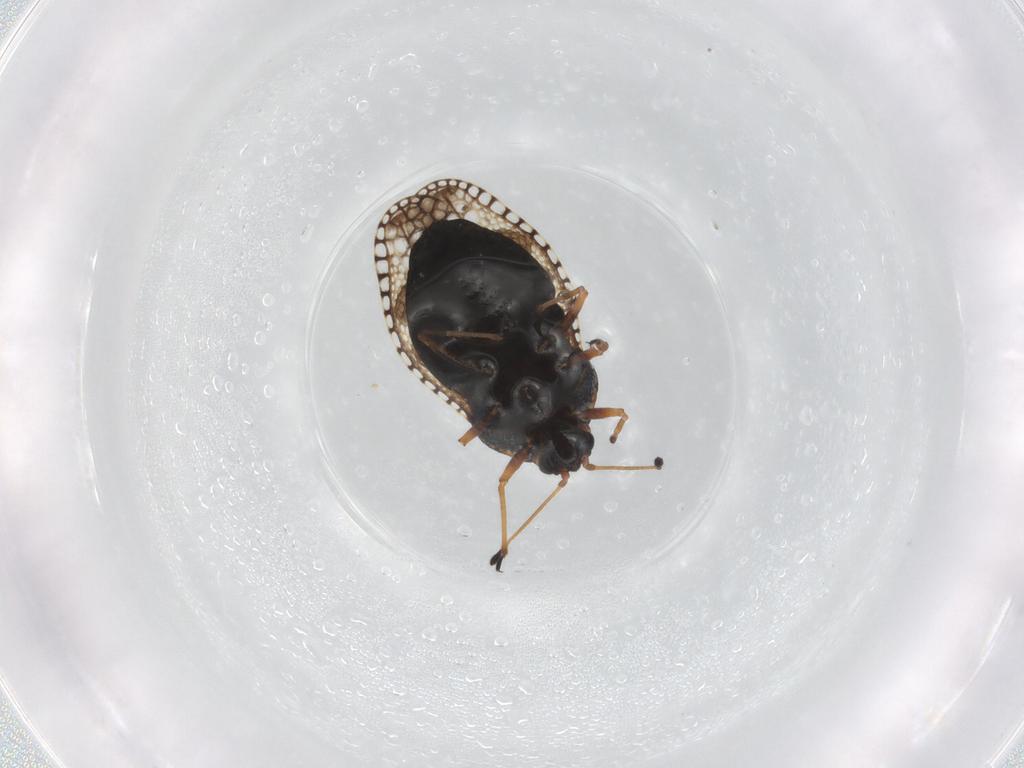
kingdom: Animalia
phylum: Arthropoda
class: Insecta
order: Hemiptera
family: Tingidae
